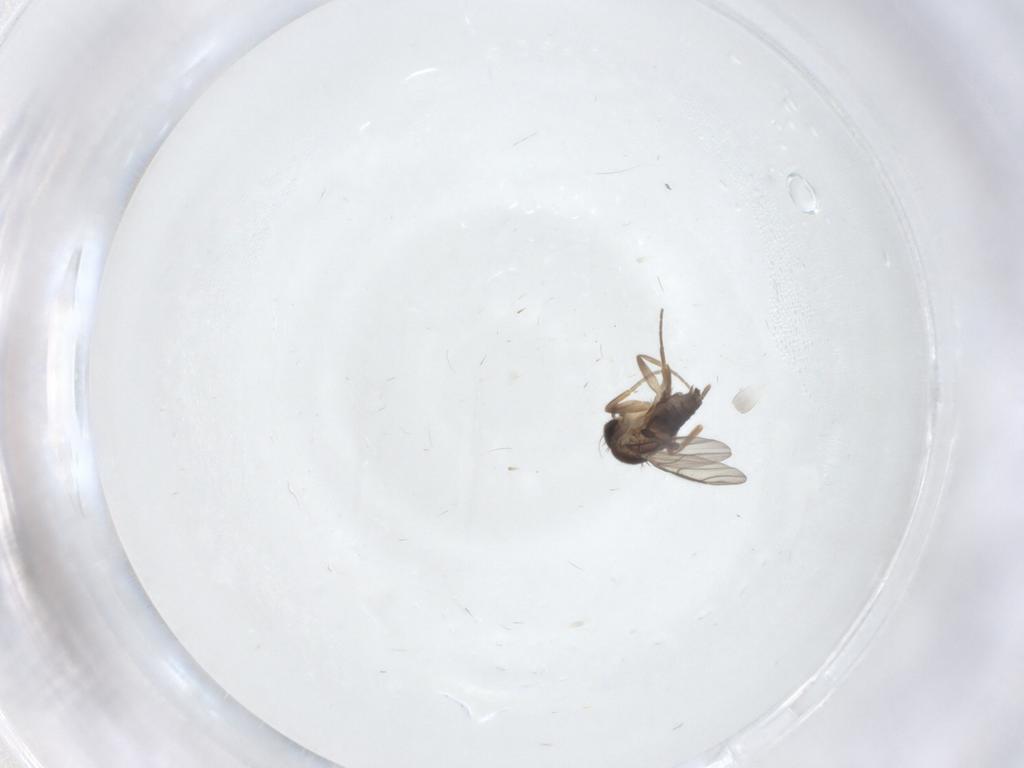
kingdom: Animalia
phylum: Arthropoda
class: Insecta
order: Diptera
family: Phoridae
